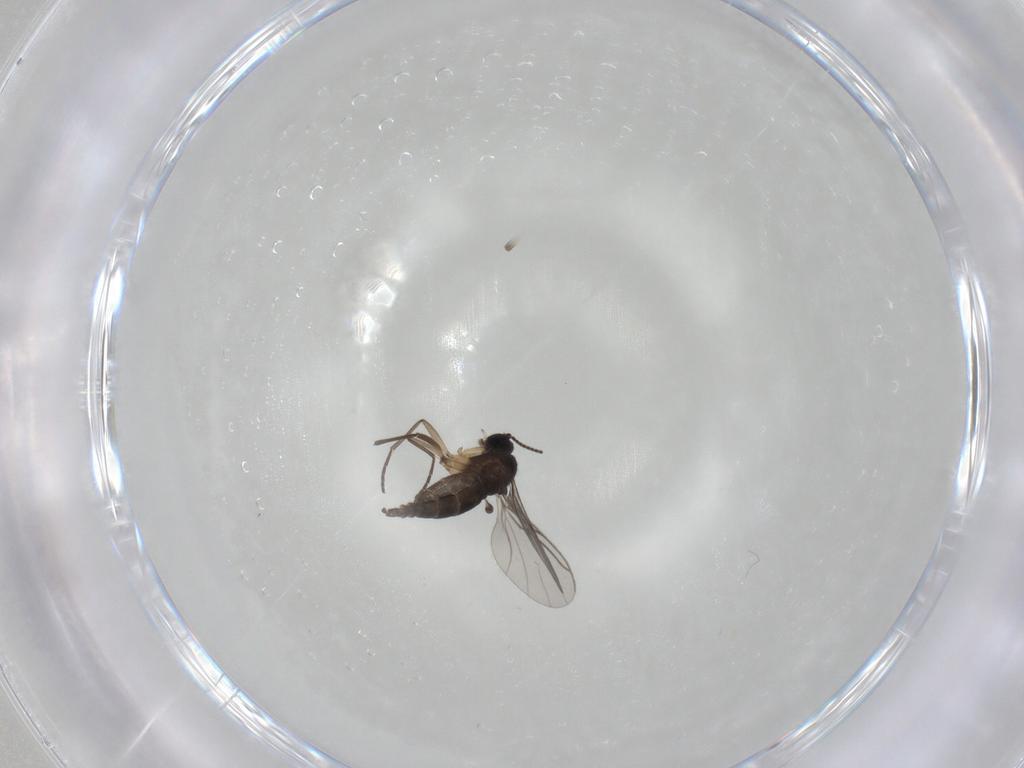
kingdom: Animalia
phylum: Arthropoda
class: Insecta
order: Diptera
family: Sciaridae
